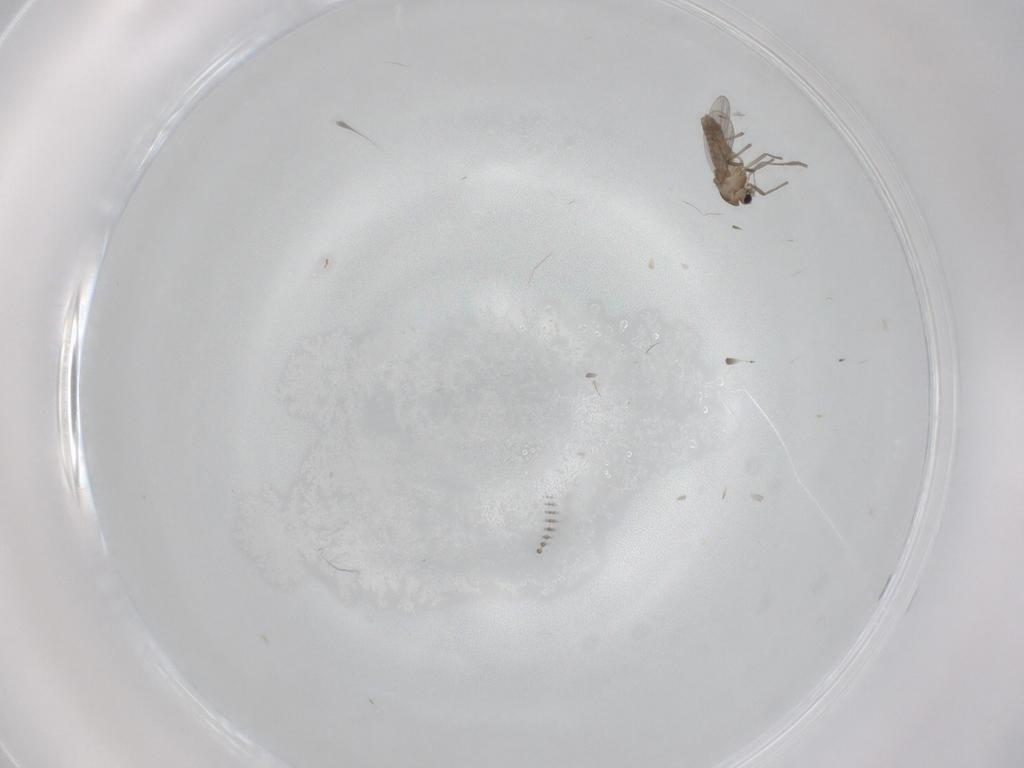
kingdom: Animalia
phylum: Arthropoda
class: Insecta
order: Diptera
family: Chironomidae
